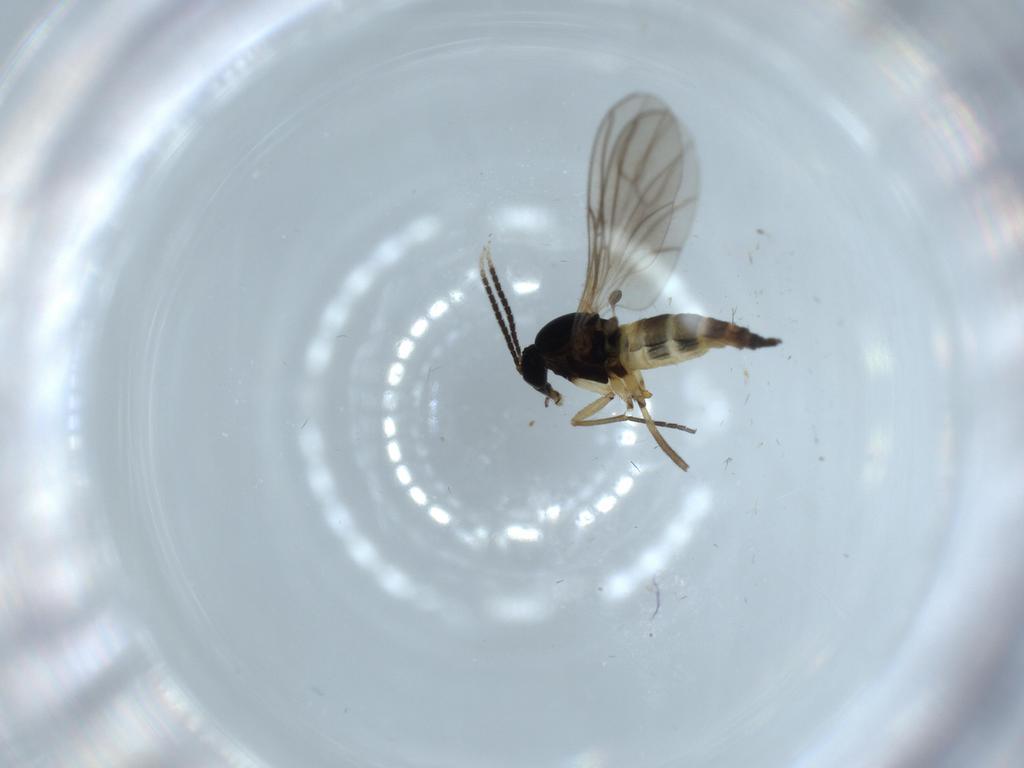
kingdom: Animalia
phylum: Arthropoda
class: Insecta
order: Diptera
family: Sciaridae
